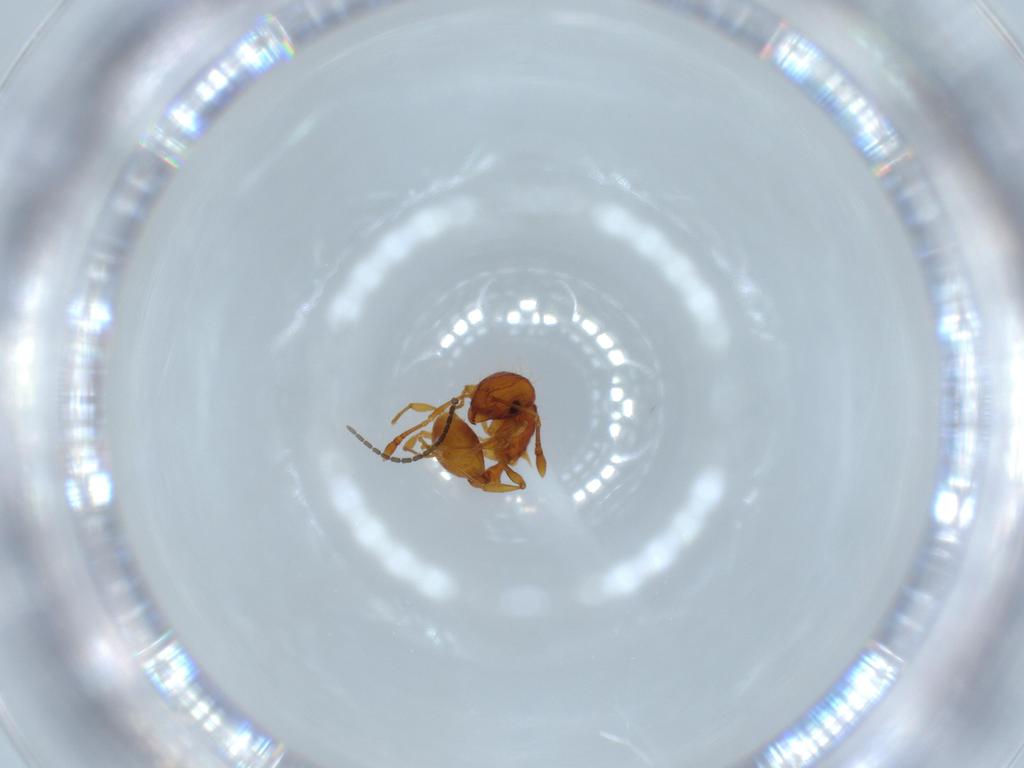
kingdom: Animalia
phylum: Arthropoda
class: Insecta
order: Hymenoptera
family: Formicidae
